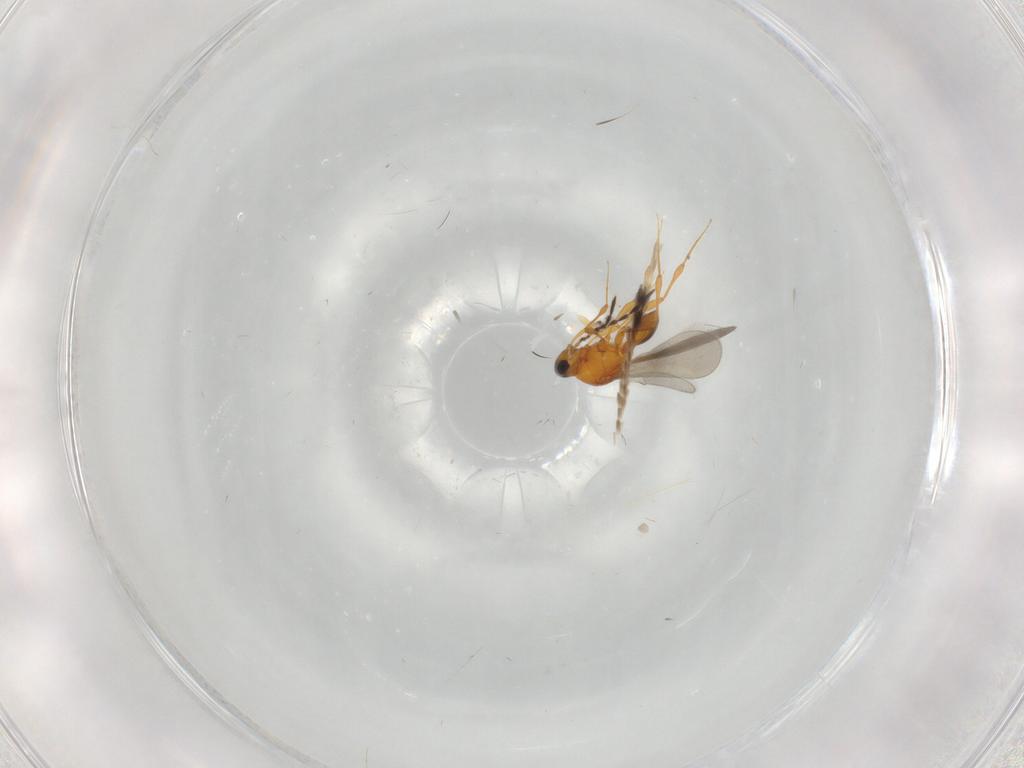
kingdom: Animalia
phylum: Arthropoda
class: Insecta
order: Hymenoptera
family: Platygastridae
